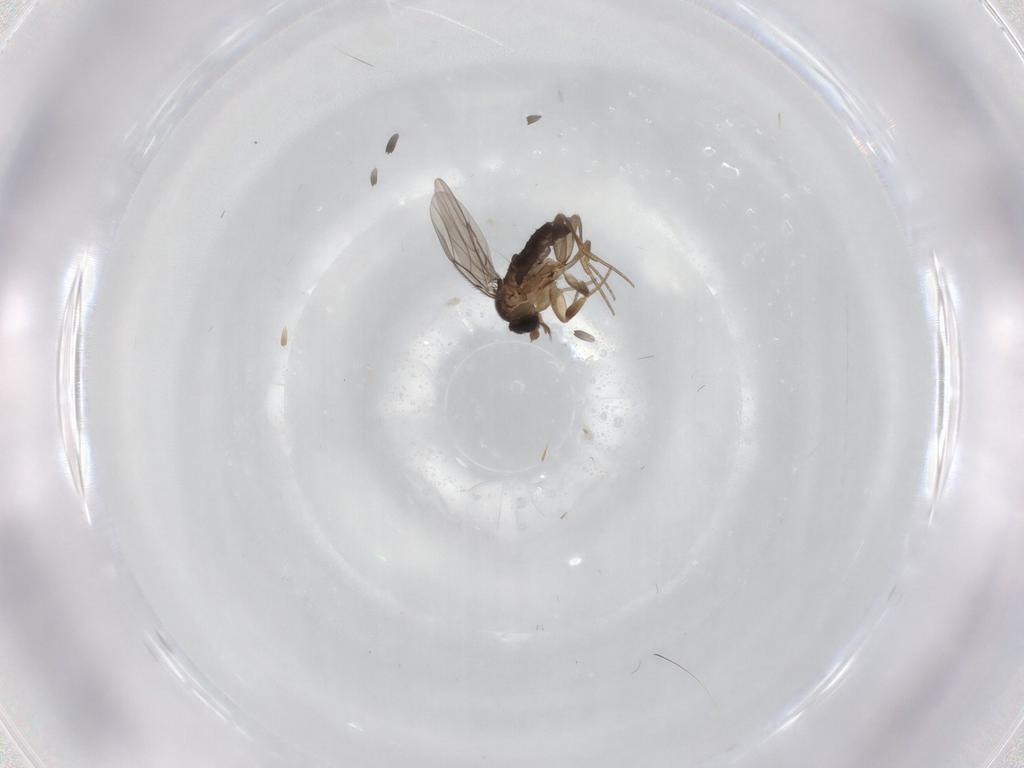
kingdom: Animalia
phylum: Arthropoda
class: Insecta
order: Diptera
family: Phoridae
